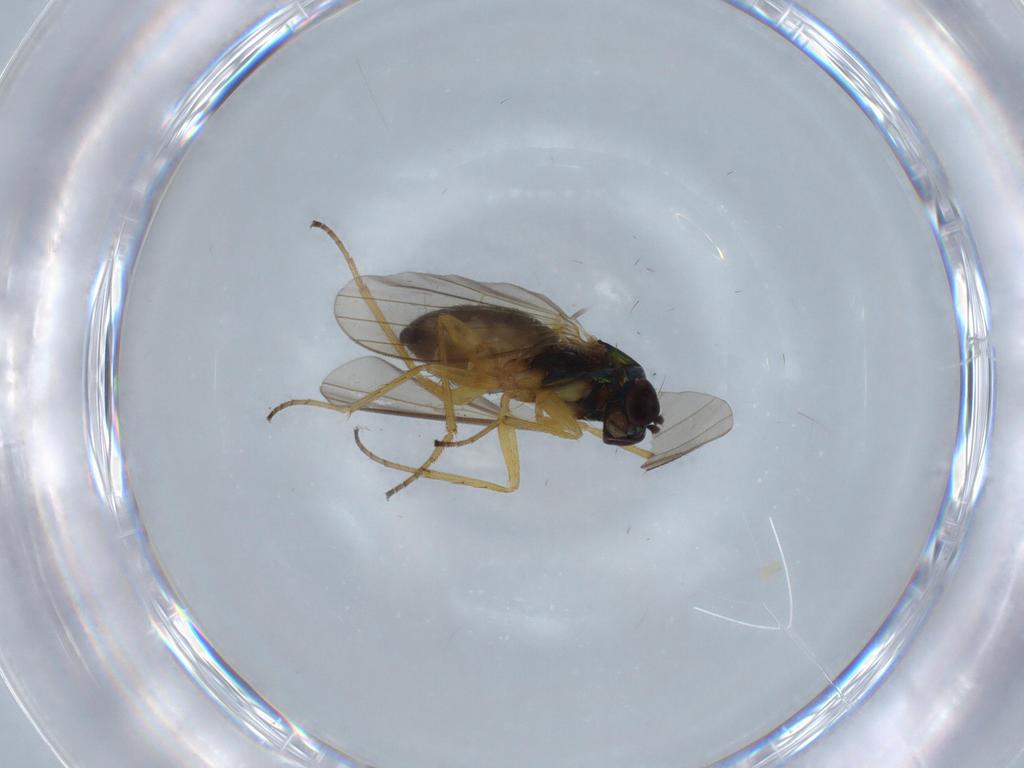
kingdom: Animalia
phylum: Arthropoda
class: Insecta
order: Diptera
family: Dolichopodidae
